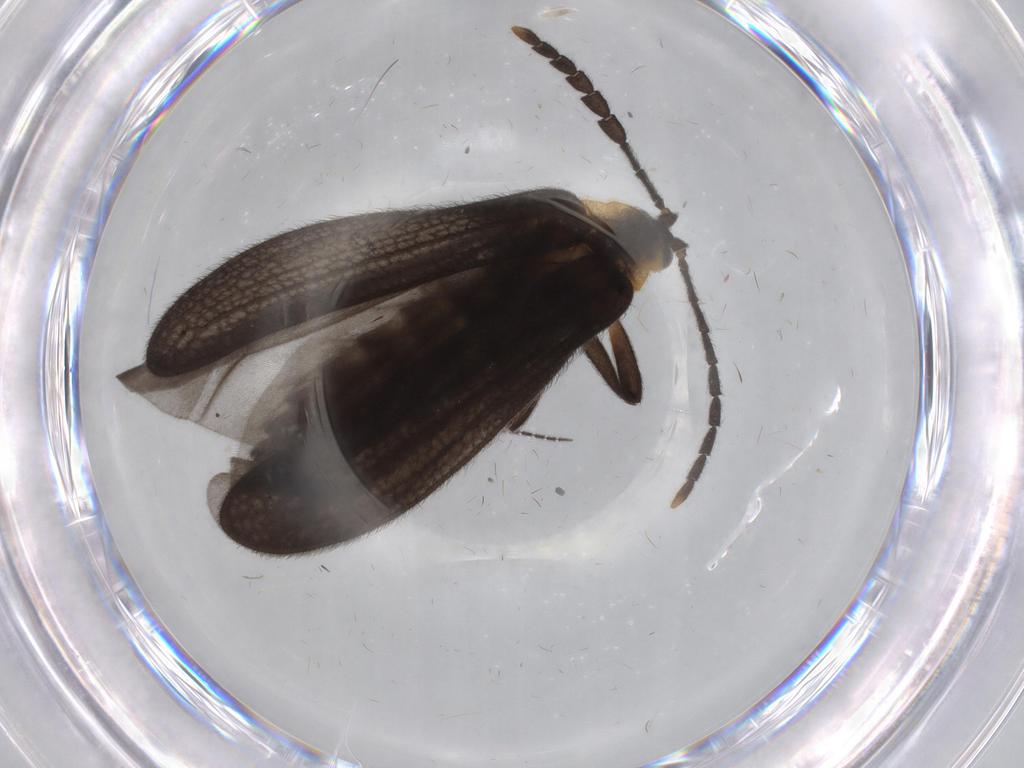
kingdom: Animalia
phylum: Arthropoda
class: Insecta
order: Coleoptera
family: Lycidae
